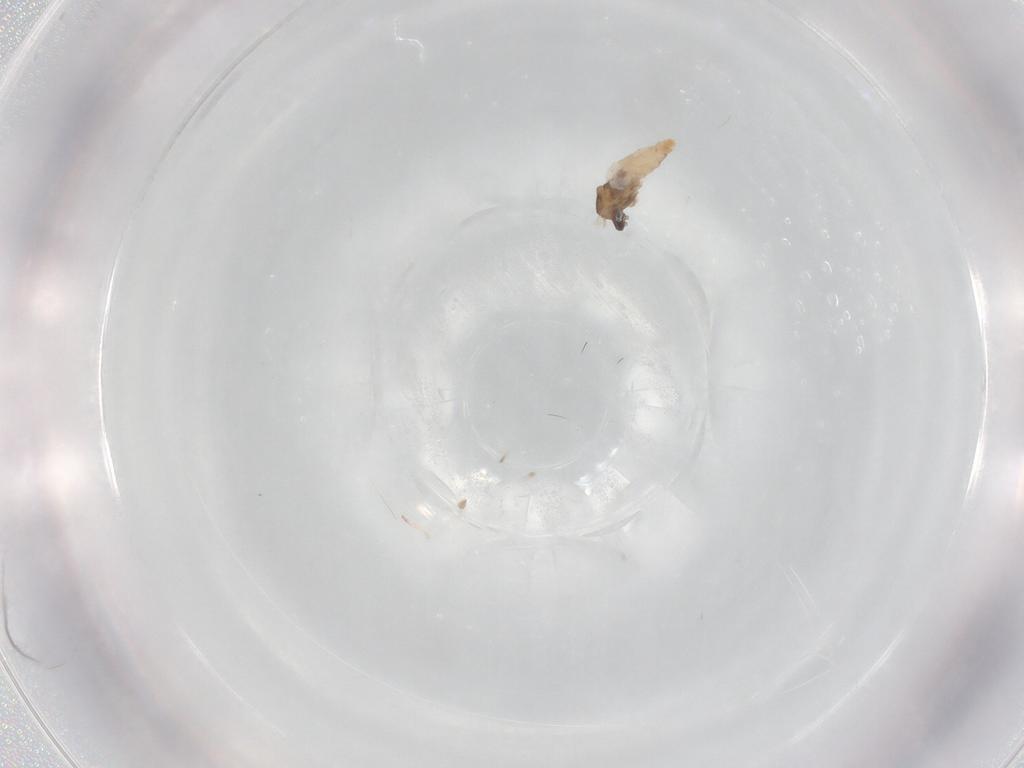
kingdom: Animalia
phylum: Arthropoda
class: Insecta
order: Diptera
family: Cecidomyiidae
